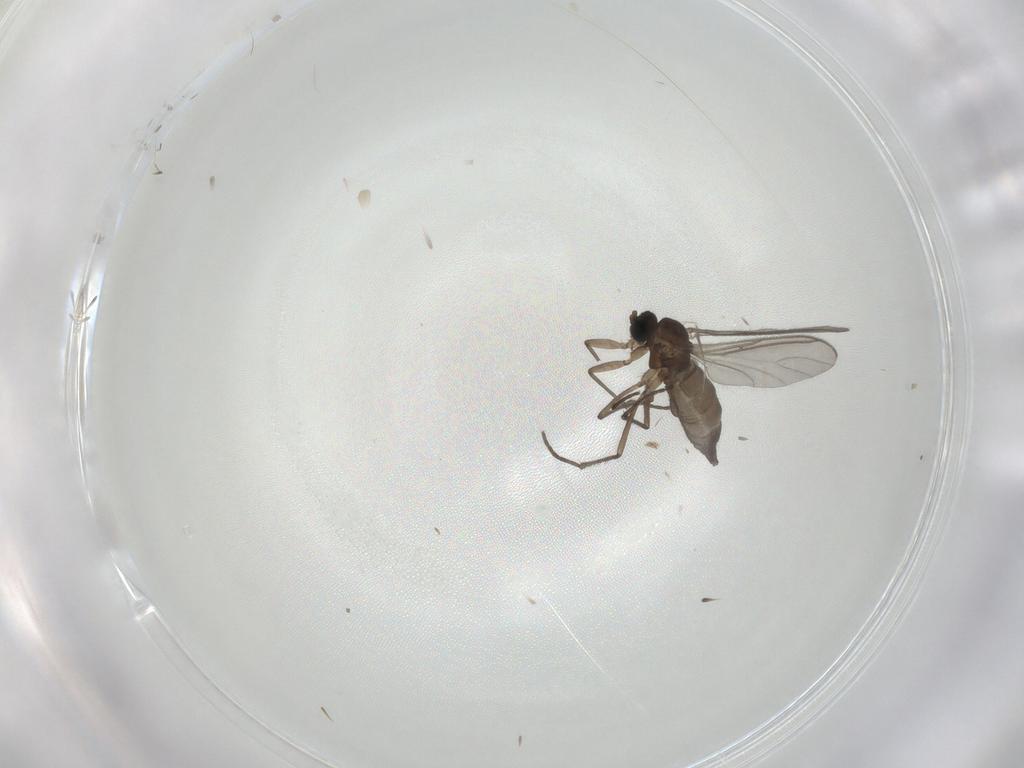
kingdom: Animalia
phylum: Arthropoda
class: Insecta
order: Diptera
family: Sciaridae
